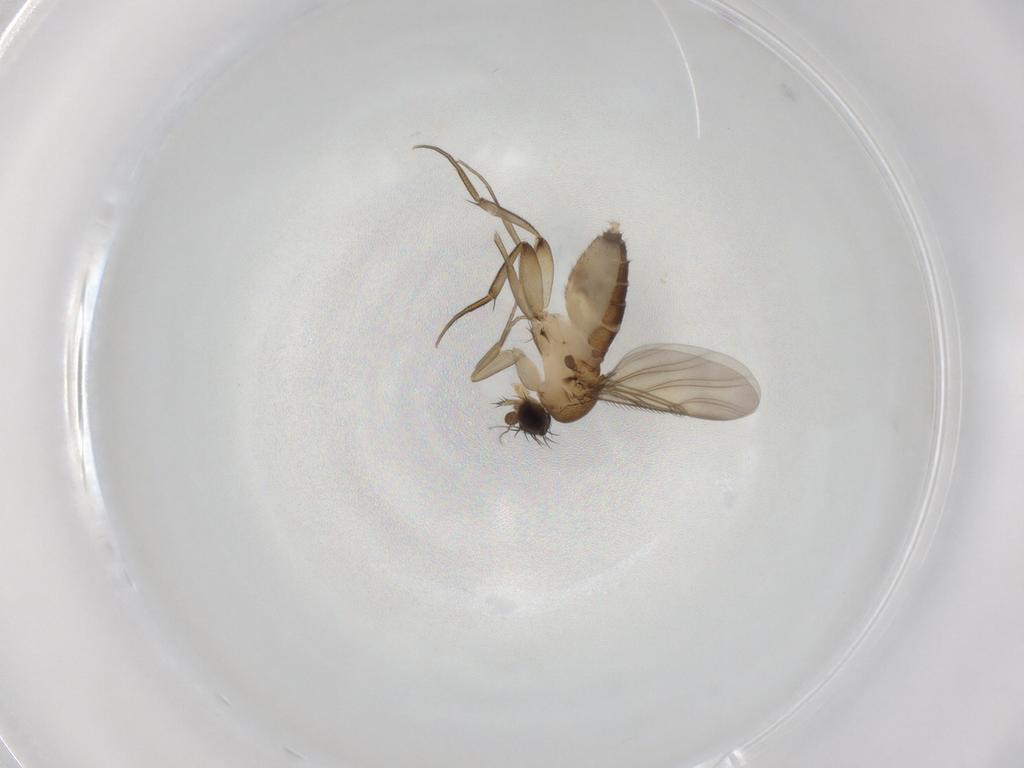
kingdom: Animalia
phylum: Arthropoda
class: Insecta
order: Diptera
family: Phoridae
